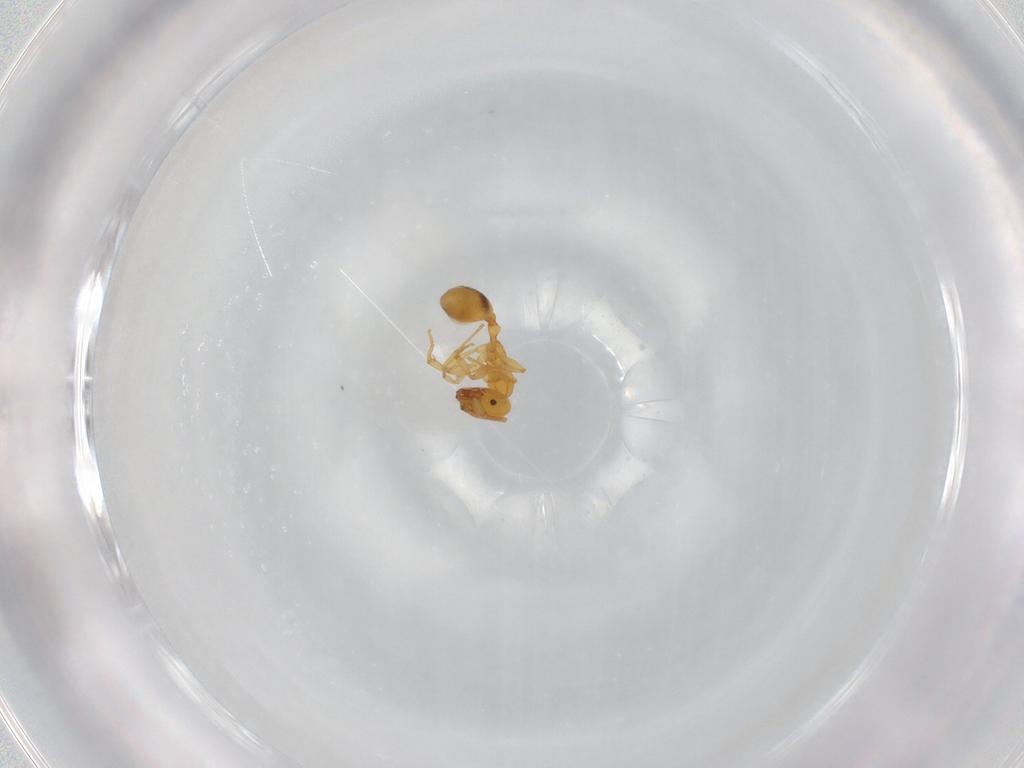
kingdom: Animalia
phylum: Arthropoda
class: Insecta
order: Hymenoptera
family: Formicidae
